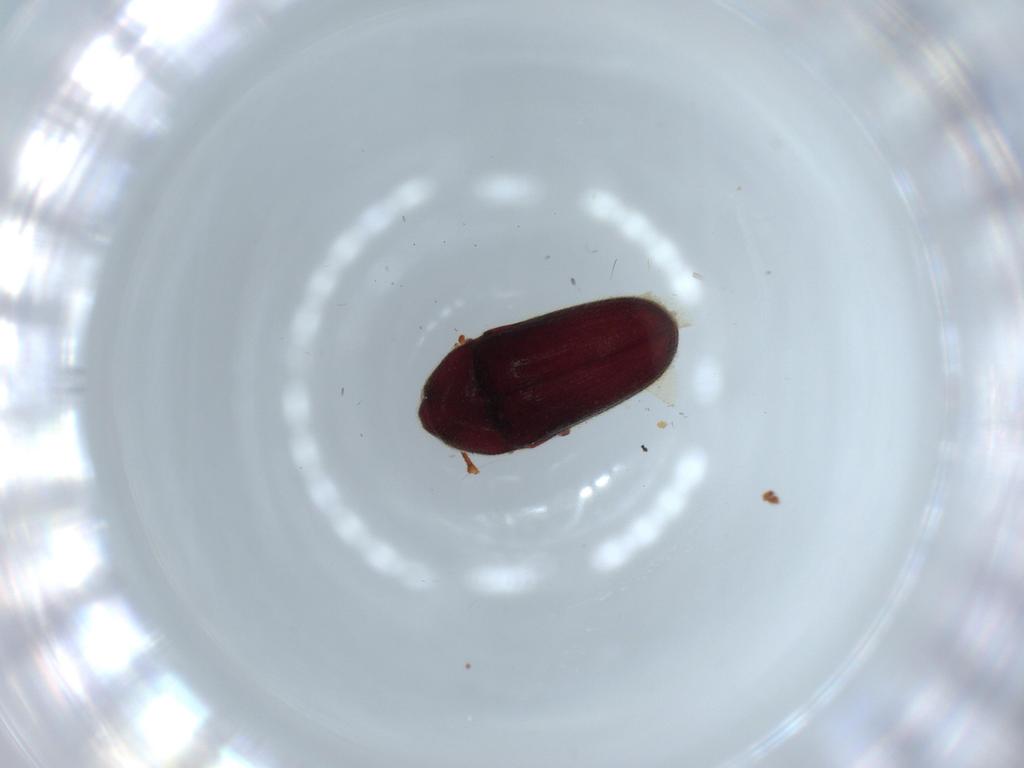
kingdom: Animalia
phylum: Arthropoda
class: Insecta
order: Coleoptera
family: Throscidae
